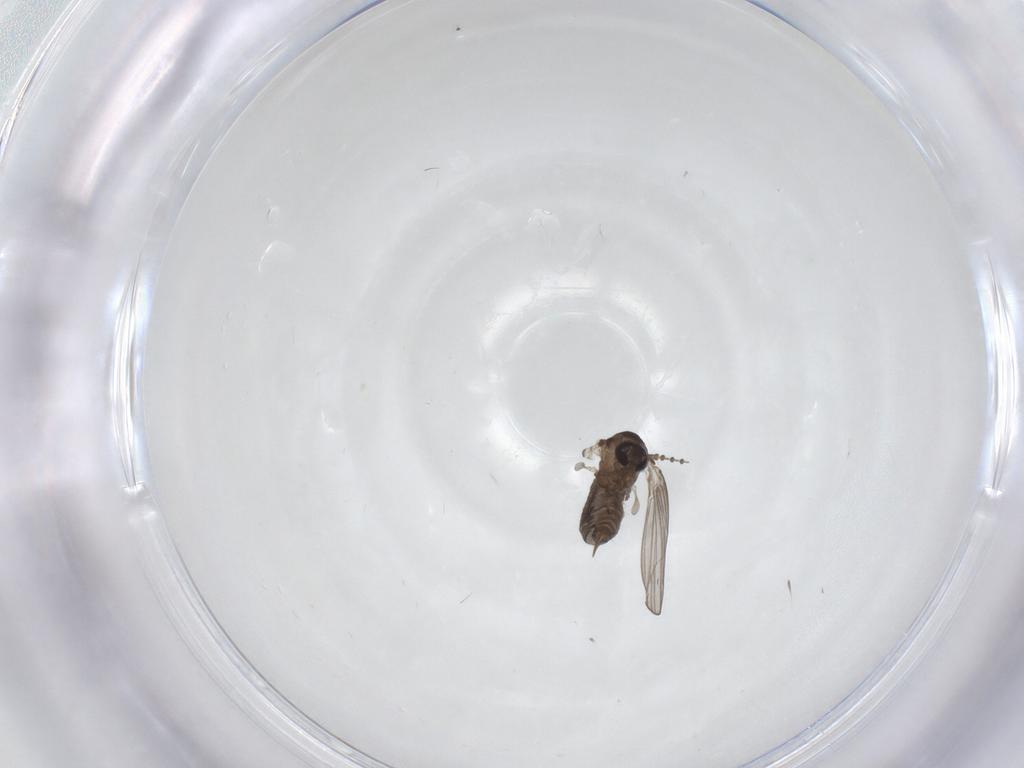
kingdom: Animalia
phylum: Arthropoda
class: Insecta
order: Diptera
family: Psychodidae
